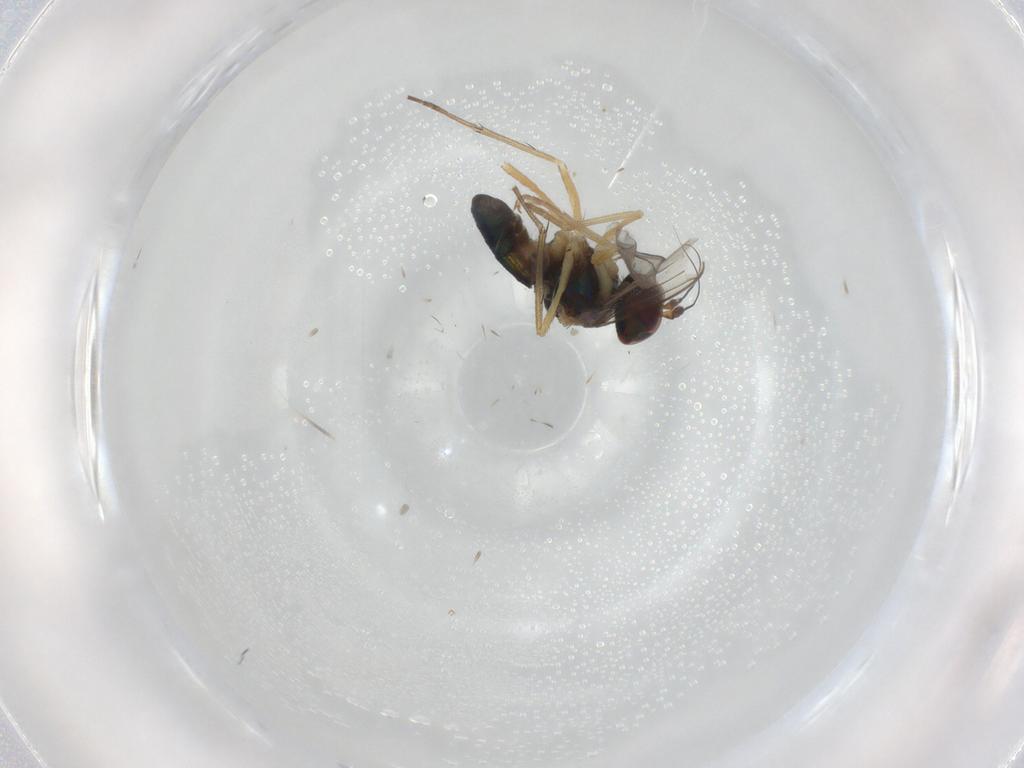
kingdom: Animalia
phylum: Arthropoda
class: Insecta
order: Diptera
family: Dolichopodidae
